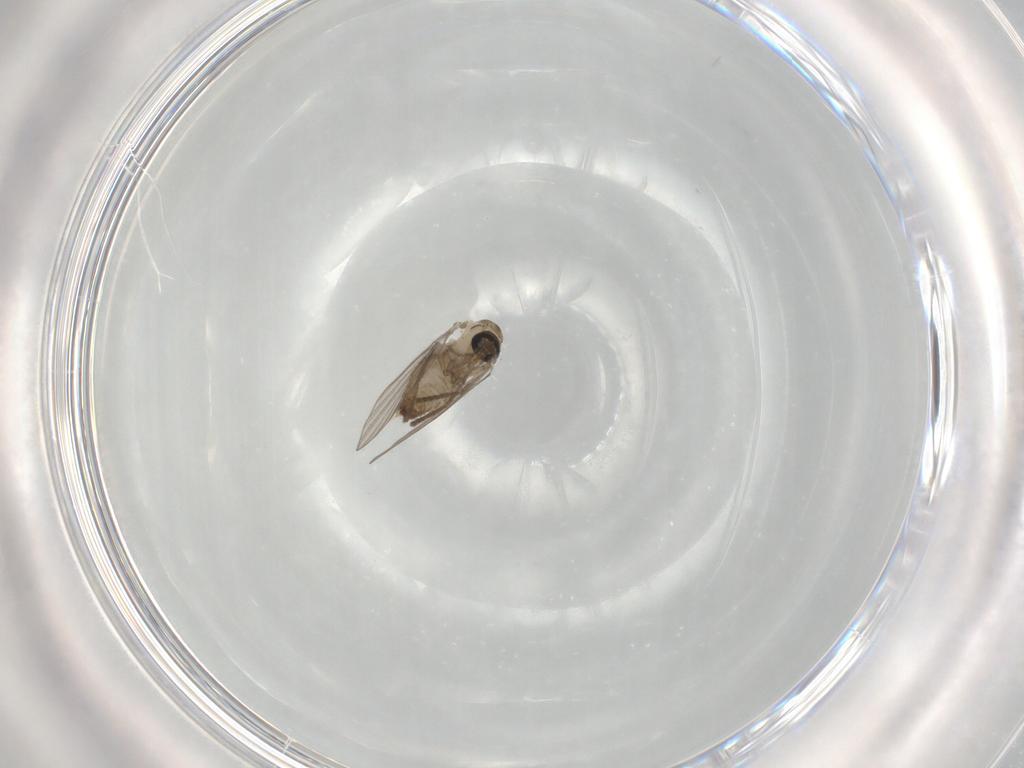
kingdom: Animalia
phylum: Arthropoda
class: Insecta
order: Diptera
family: Psychodidae
